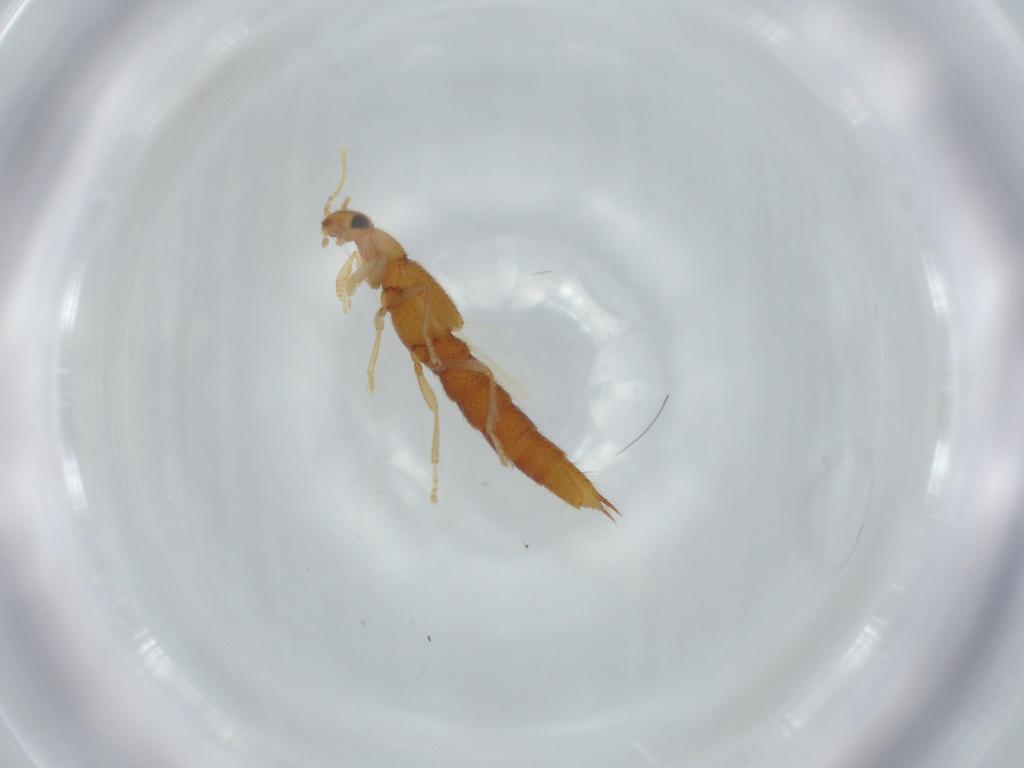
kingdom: Animalia
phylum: Arthropoda
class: Insecta
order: Coleoptera
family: Staphylinidae
